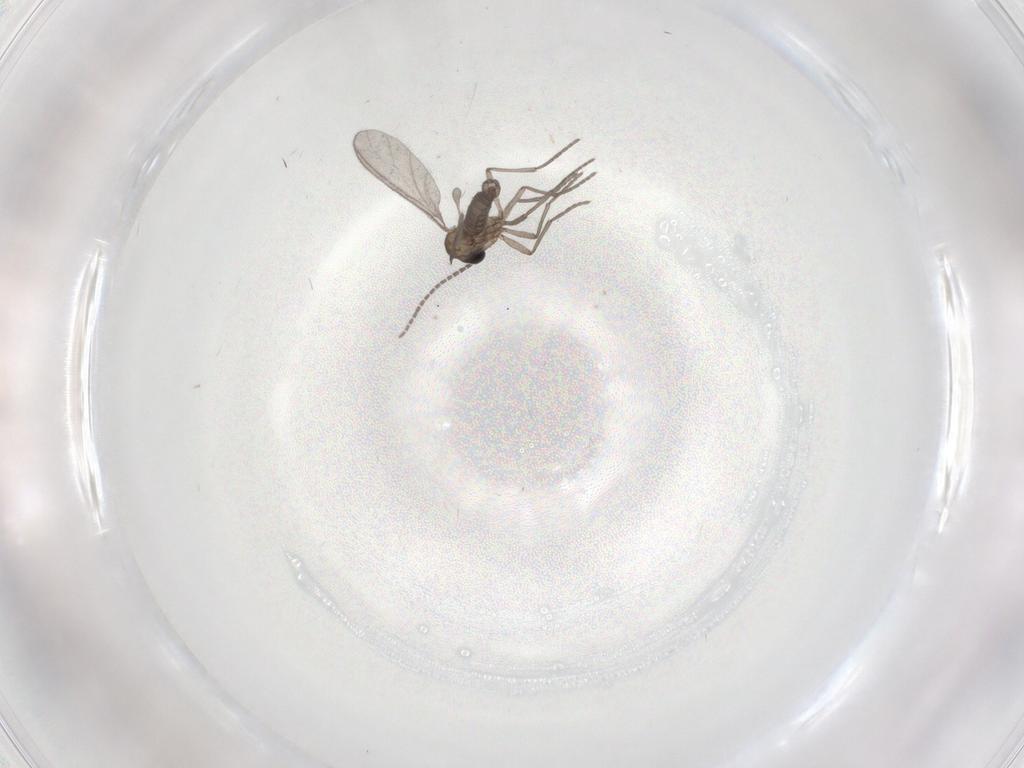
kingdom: Animalia
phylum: Arthropoda
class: Insecta
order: Diptera
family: Sciaridae
